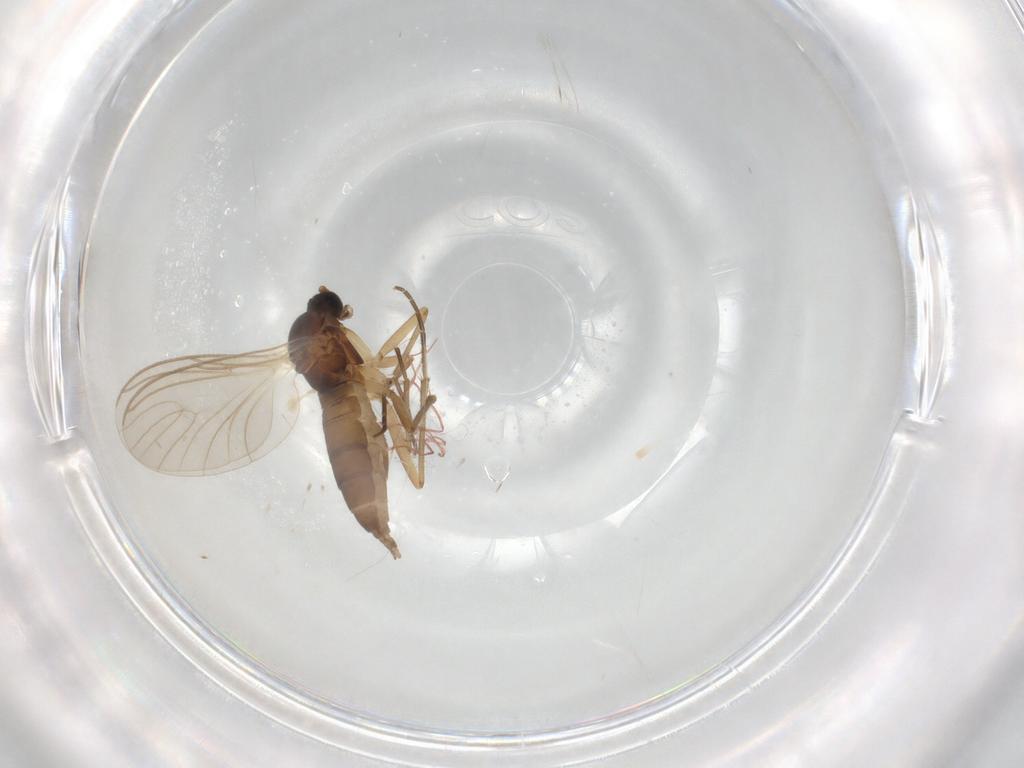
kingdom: Animalia
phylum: Arthropoda
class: Insecta
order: Diptera
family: Sciaridae
